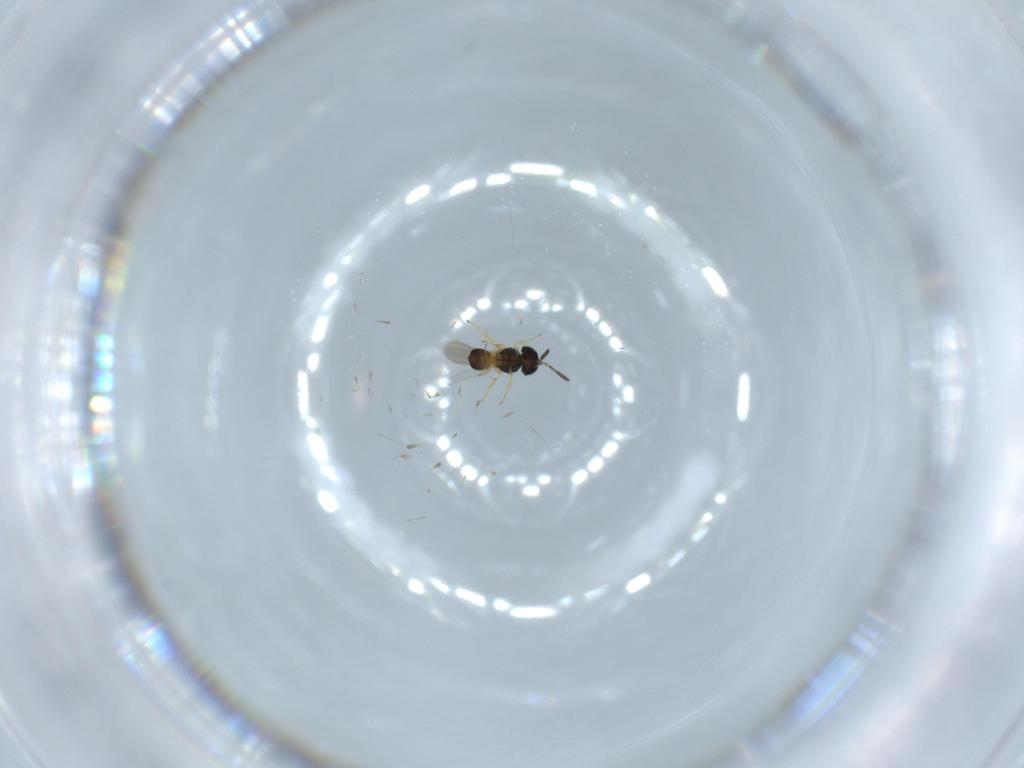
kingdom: Animalia
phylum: Arthropoda
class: Insecta
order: Hymenoptera
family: Scelionidae
